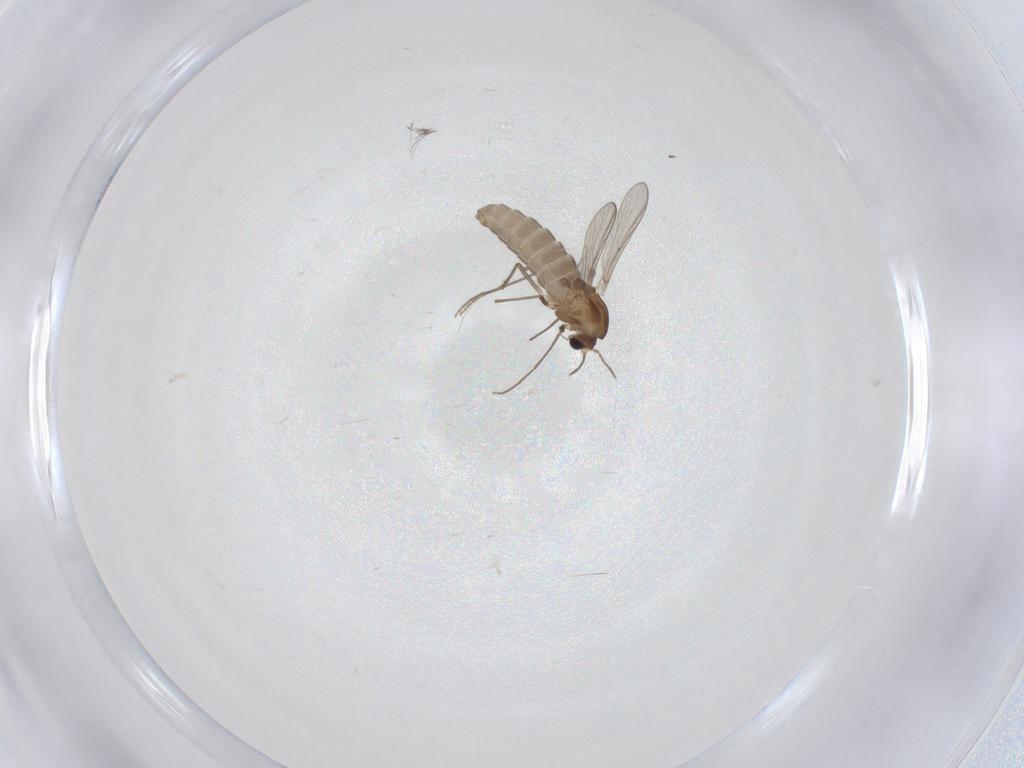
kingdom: Animalia
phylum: Arthropoda
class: Insecta
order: Diptera
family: Chironomidae
